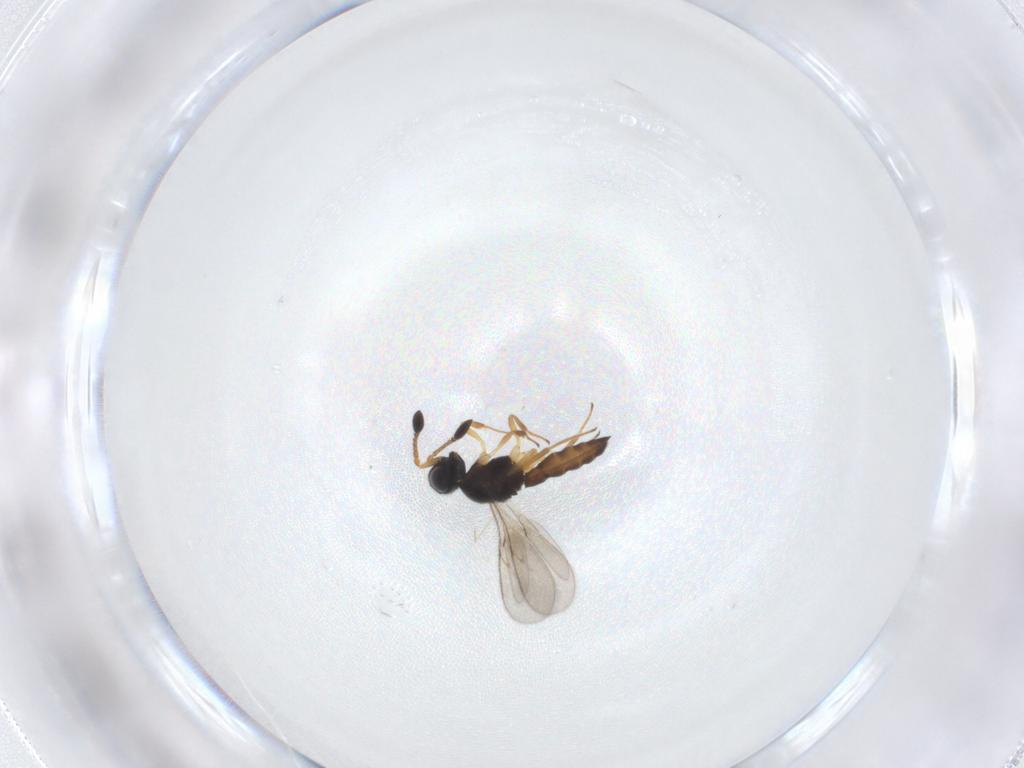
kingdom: Animalia
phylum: Arthropoda
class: Insecta
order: Hymenoptera
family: Scelionidae
